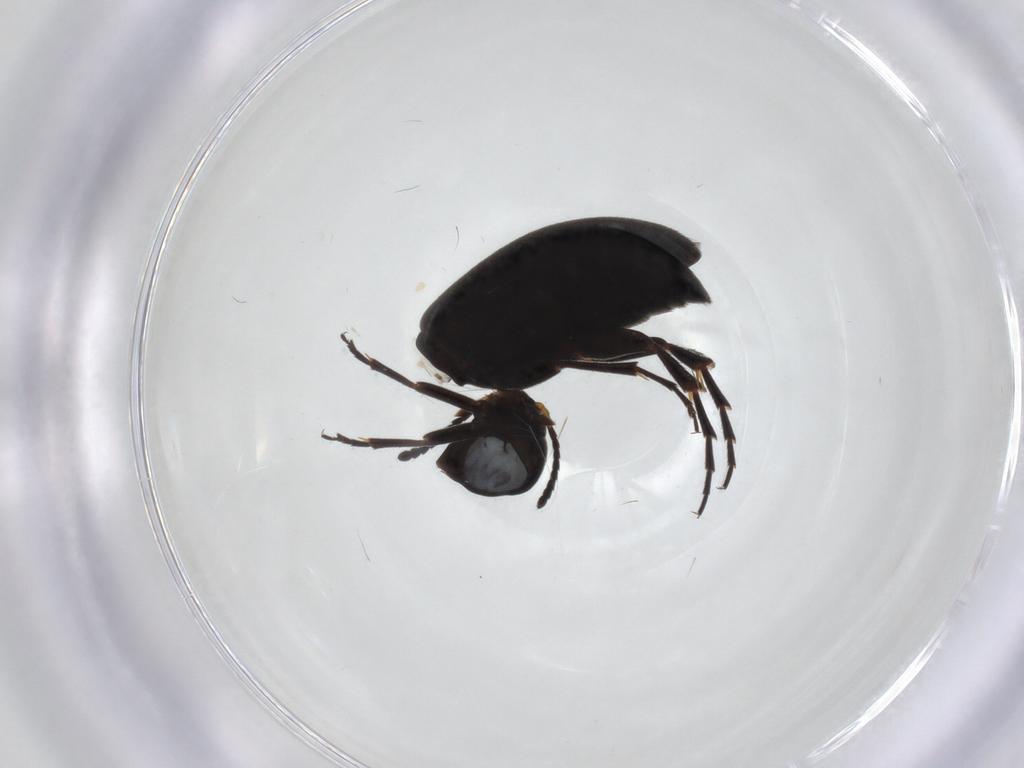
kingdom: Animalia
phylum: Arthropoda
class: Insecta
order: Coleoptera
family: Scraptiidae
